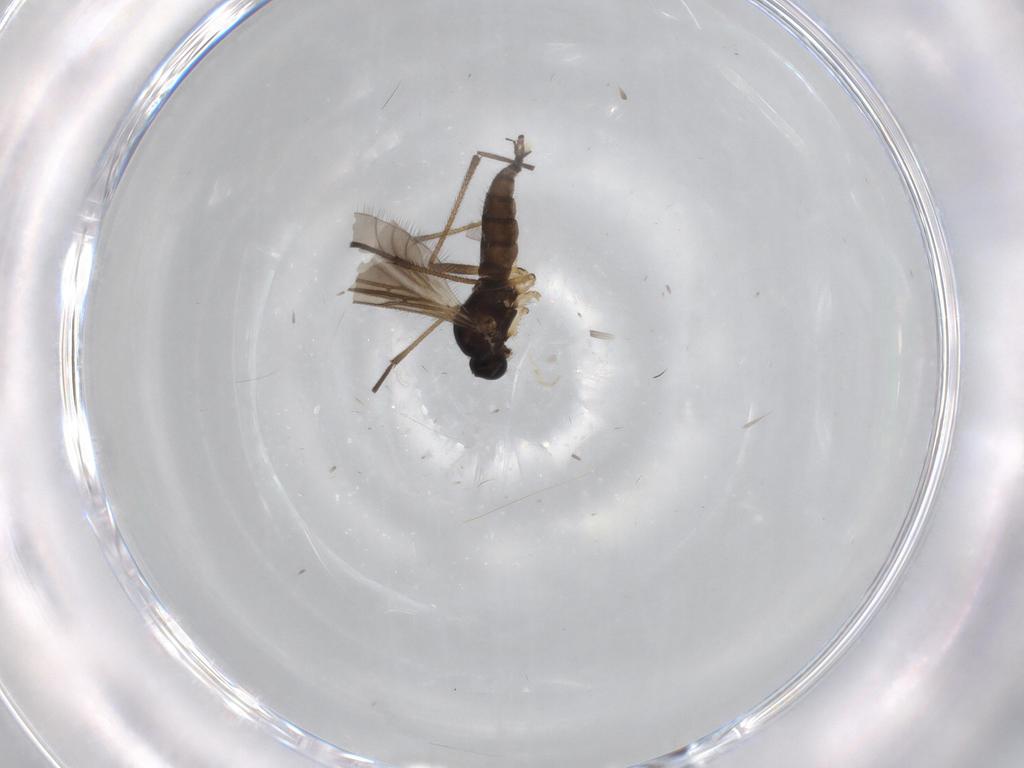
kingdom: Animalia
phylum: Arthropoda
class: Insecta
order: Diptera
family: Sciaridae
